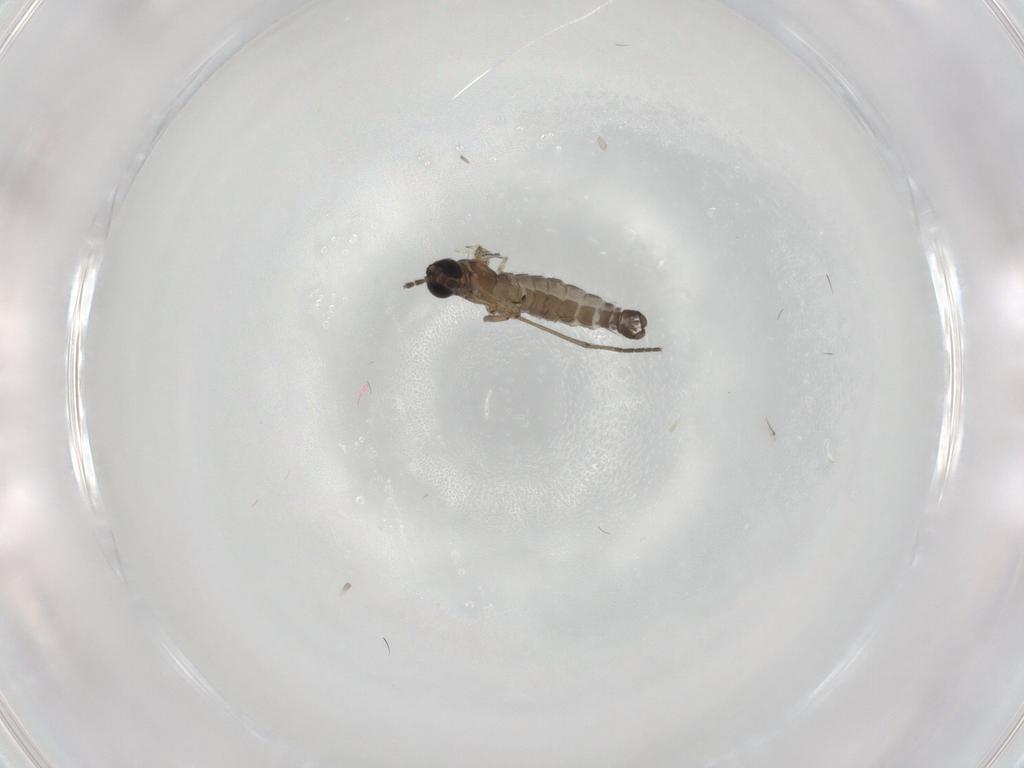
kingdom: Animalia
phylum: Arthropoda
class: Insecta
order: Diptera
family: Sciaridae
